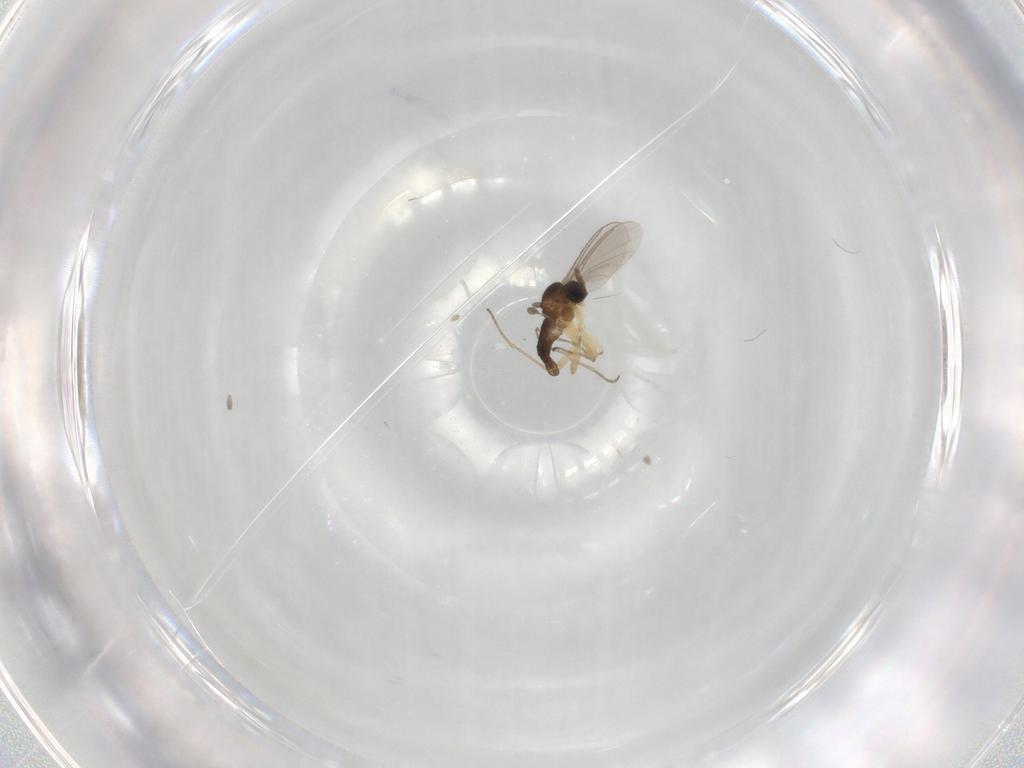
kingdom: Animalia
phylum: Arthropoda
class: Insecta
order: Diptera
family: Sciaridae
